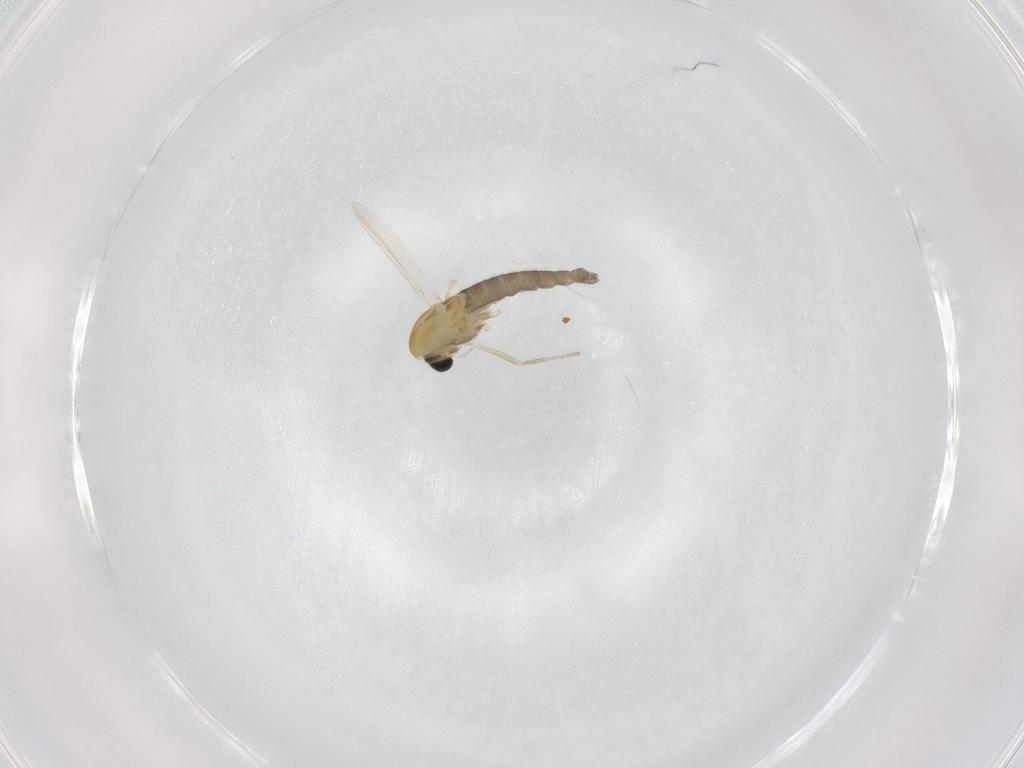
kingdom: Animalia
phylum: Arthropoda
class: Insecta
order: Diptera
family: Chironomidae
